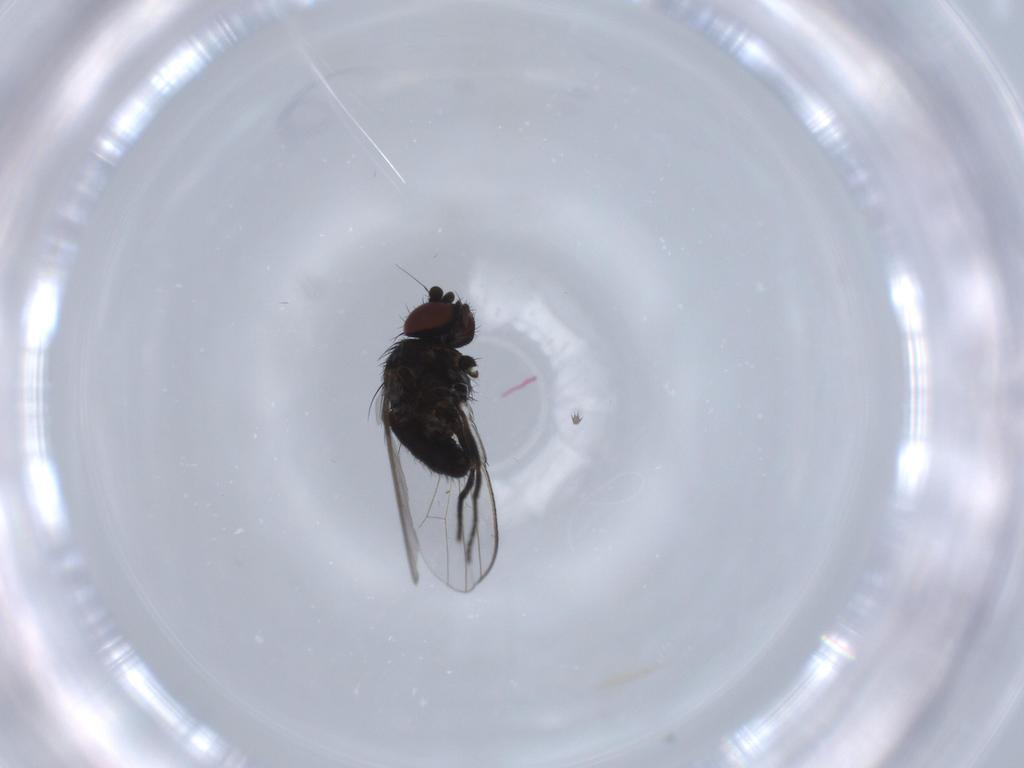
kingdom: Animalia
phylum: Arthropoda
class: Insecta
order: Diptera
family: Milichiidae
